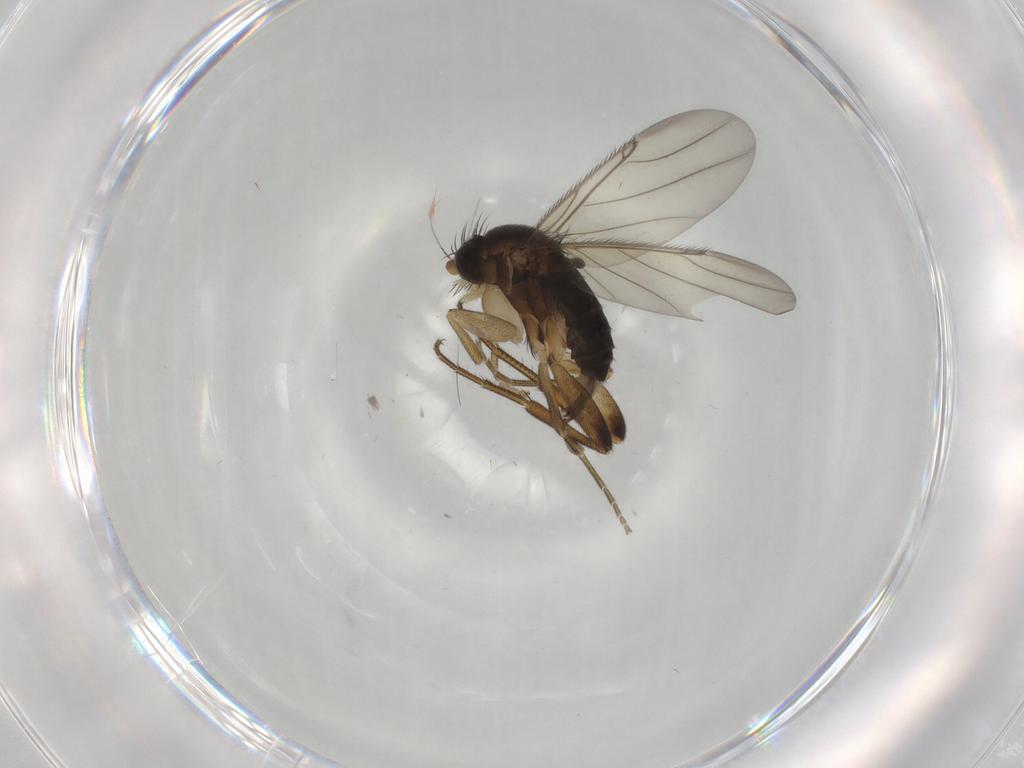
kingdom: Animalia
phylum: Arthropoda
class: Insecta
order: Diptera
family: Phoridae
